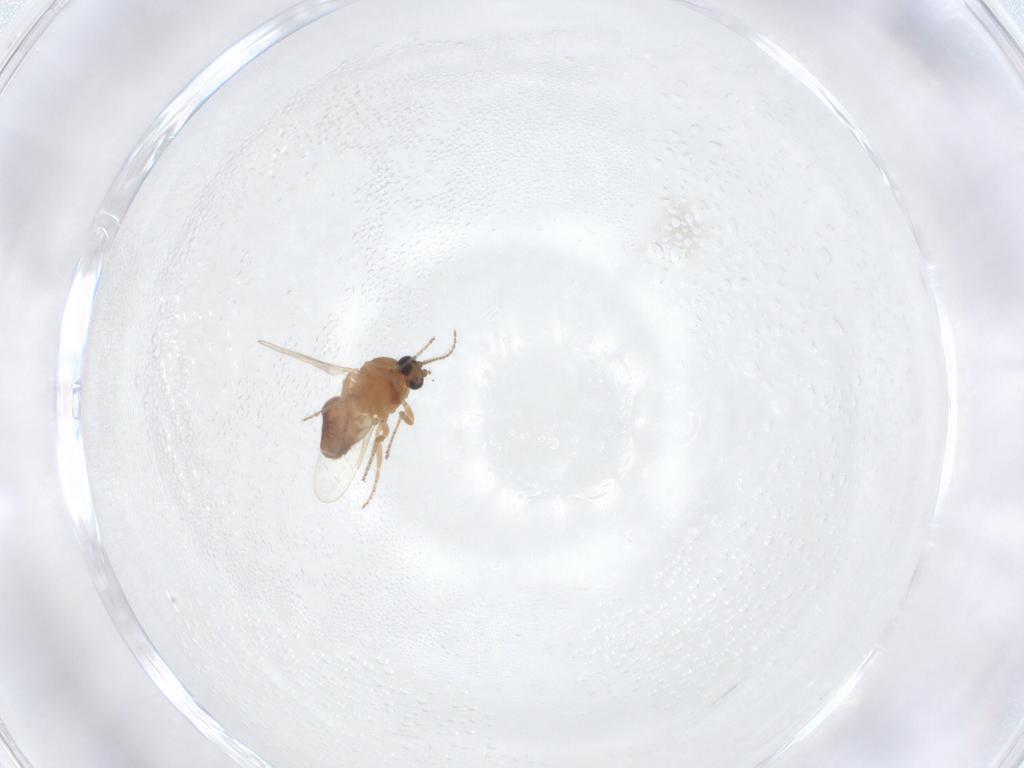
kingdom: Animalia
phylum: Arthropoda
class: Insecta
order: Diptera
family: Ceratopogonidae
